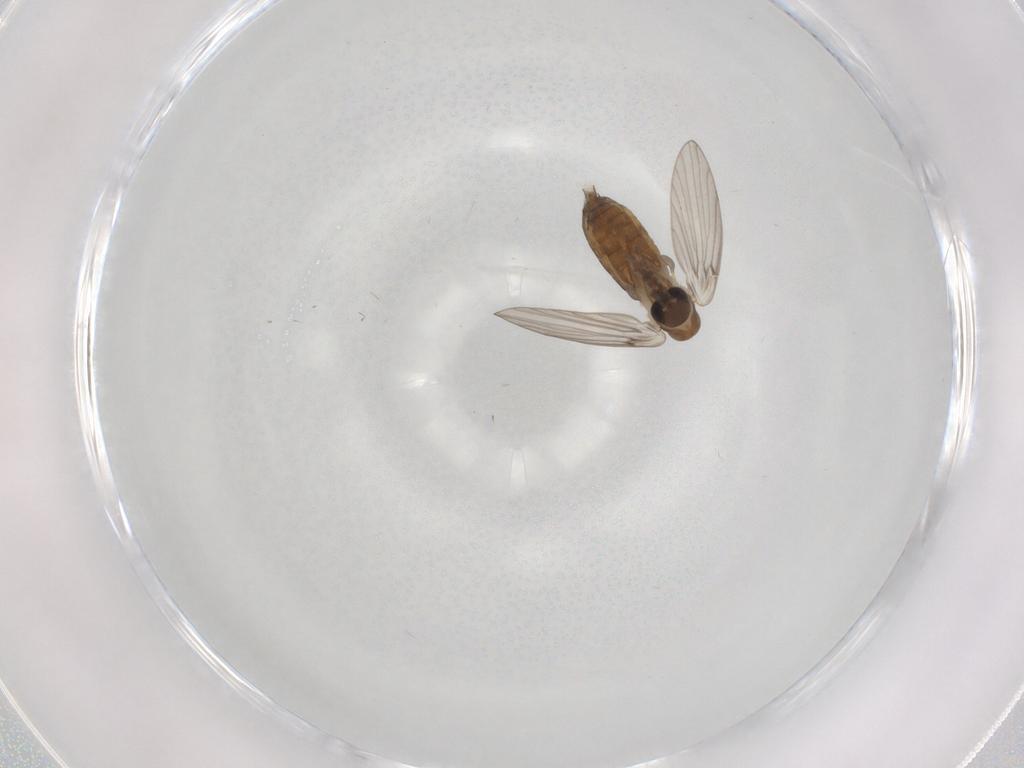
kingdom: Animalia
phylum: Arthropoda
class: Insecta
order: Diptera
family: Psychodidae
